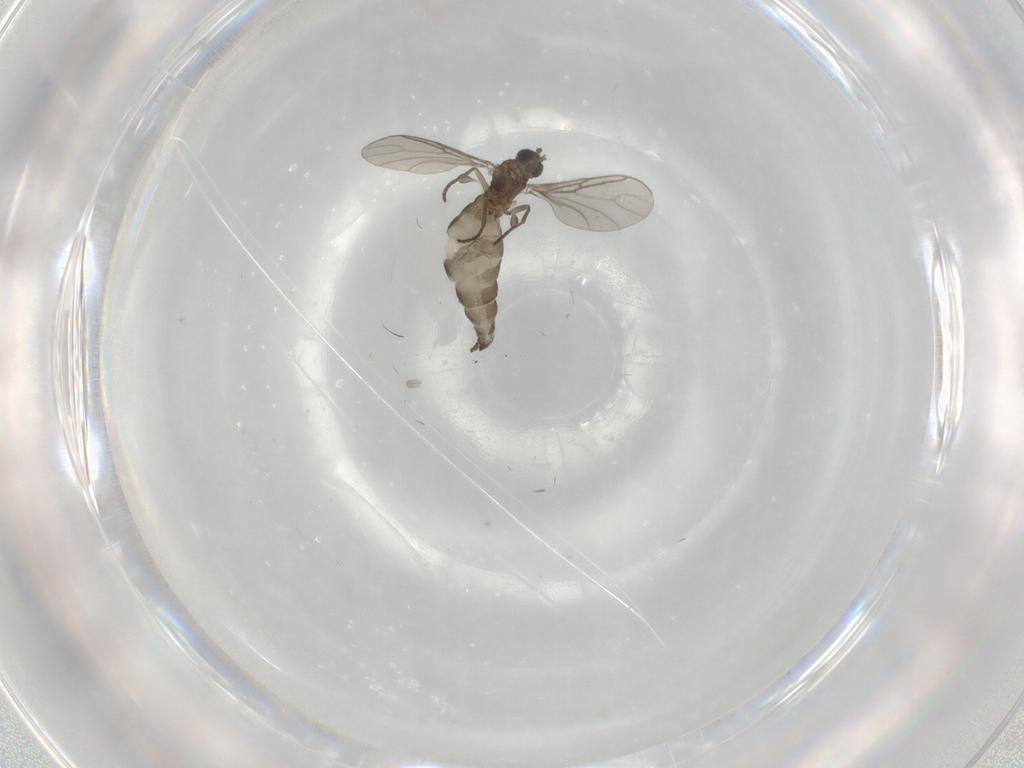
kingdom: Animalia
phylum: Arthropoda
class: Insecta
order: Diptera
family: Sciaridae
